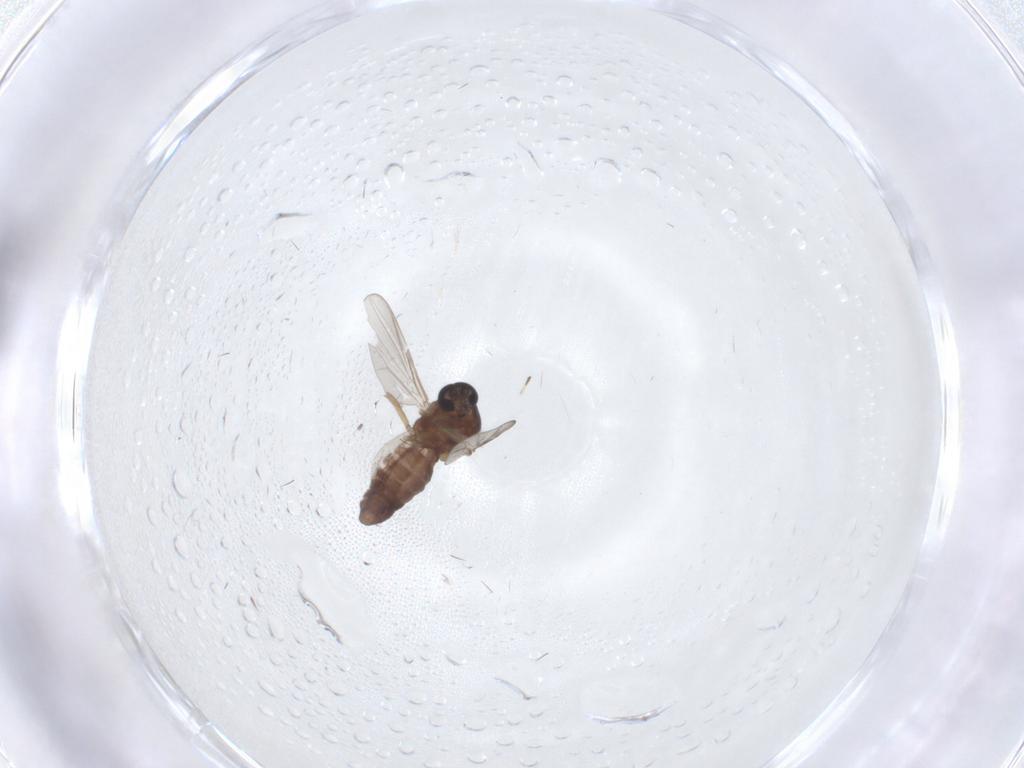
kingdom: Animalia
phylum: Arthropoda
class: Insecta
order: Diptera
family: Ceratopogonidae
